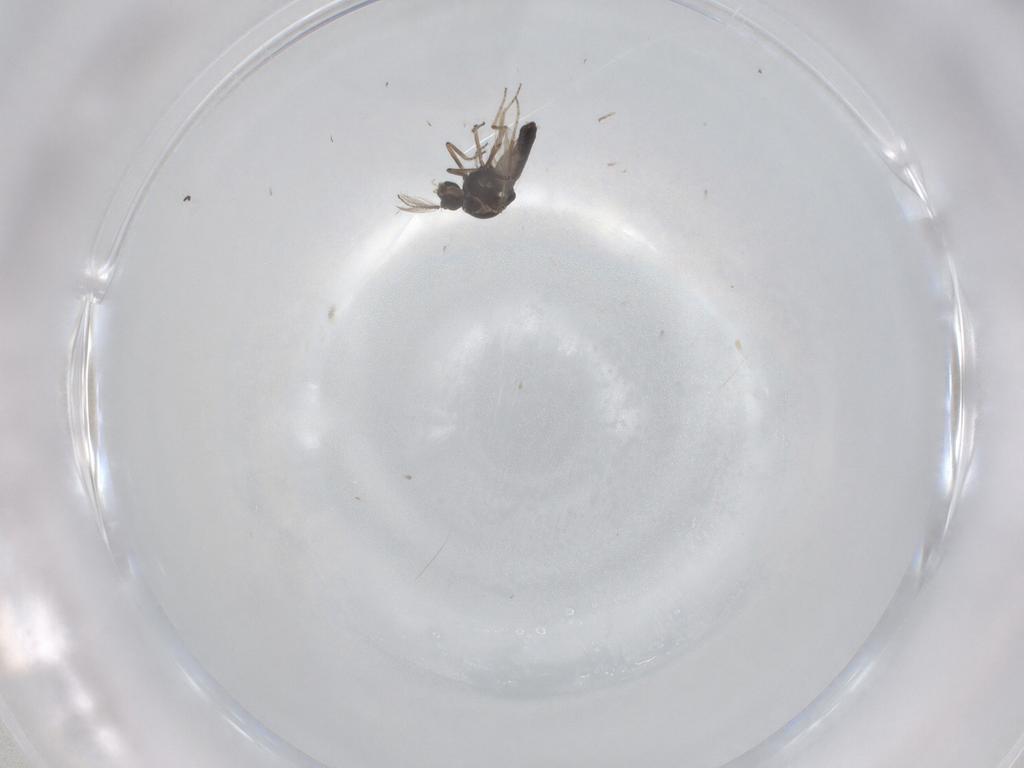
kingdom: Animalia
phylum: Arthropoda
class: Insecta
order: Diptera
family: Ceratopogonidae
